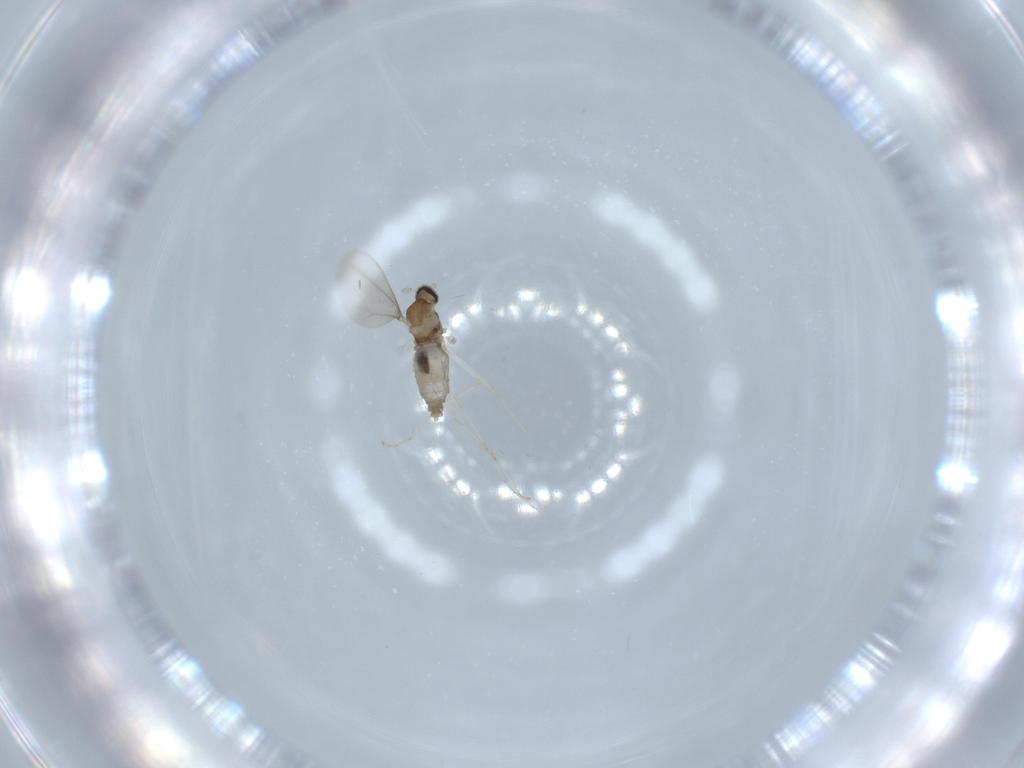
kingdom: Animalia
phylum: Arthropoda
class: Insecta
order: Diptera
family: Cecidomyiidae
